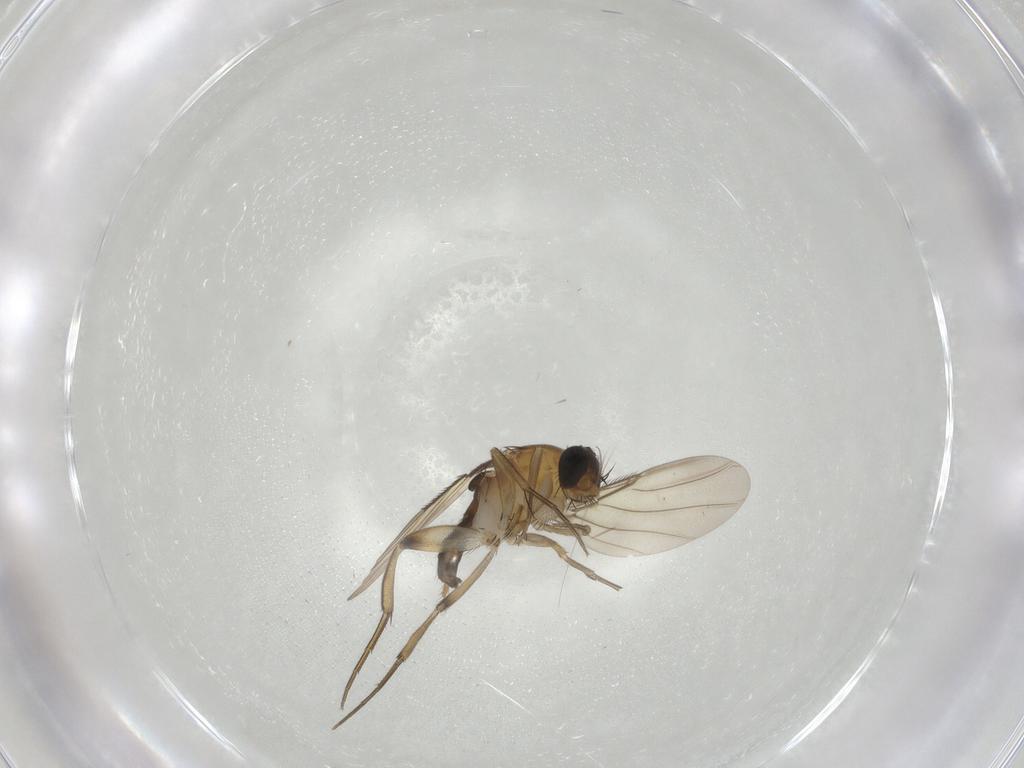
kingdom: Animalia
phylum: Arthropoda
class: Insecta
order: Diptera
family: Phoridae
